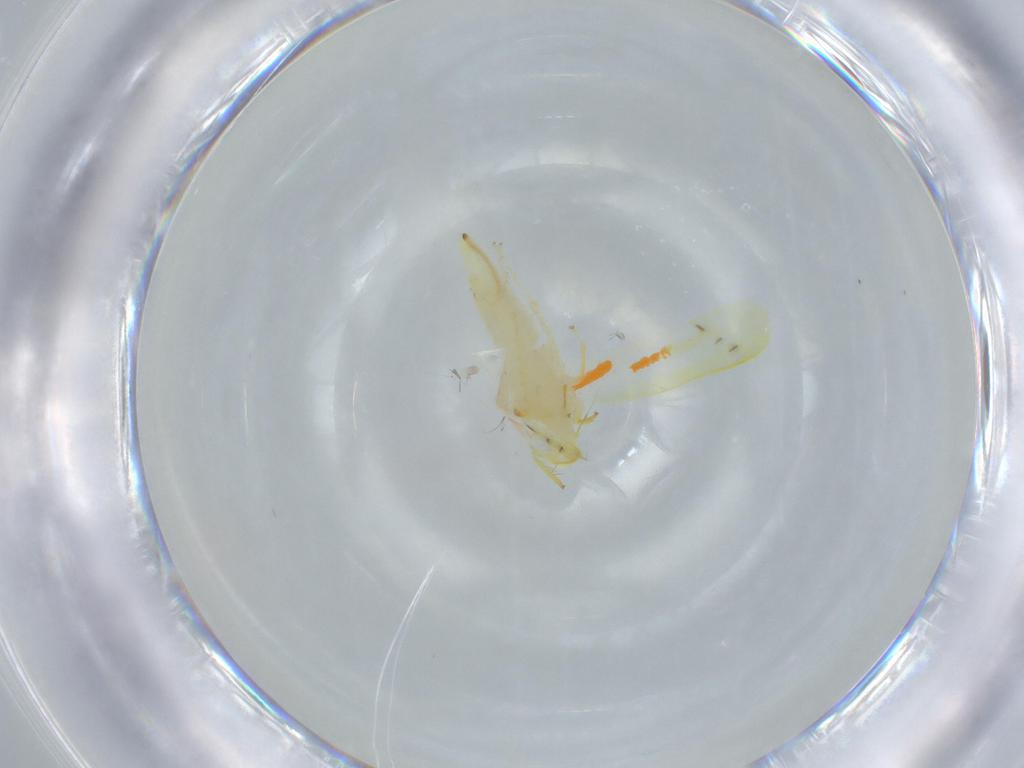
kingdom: Animalia
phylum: Arthropoda
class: Insecta
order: Hemiptera
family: Cicadellidae
